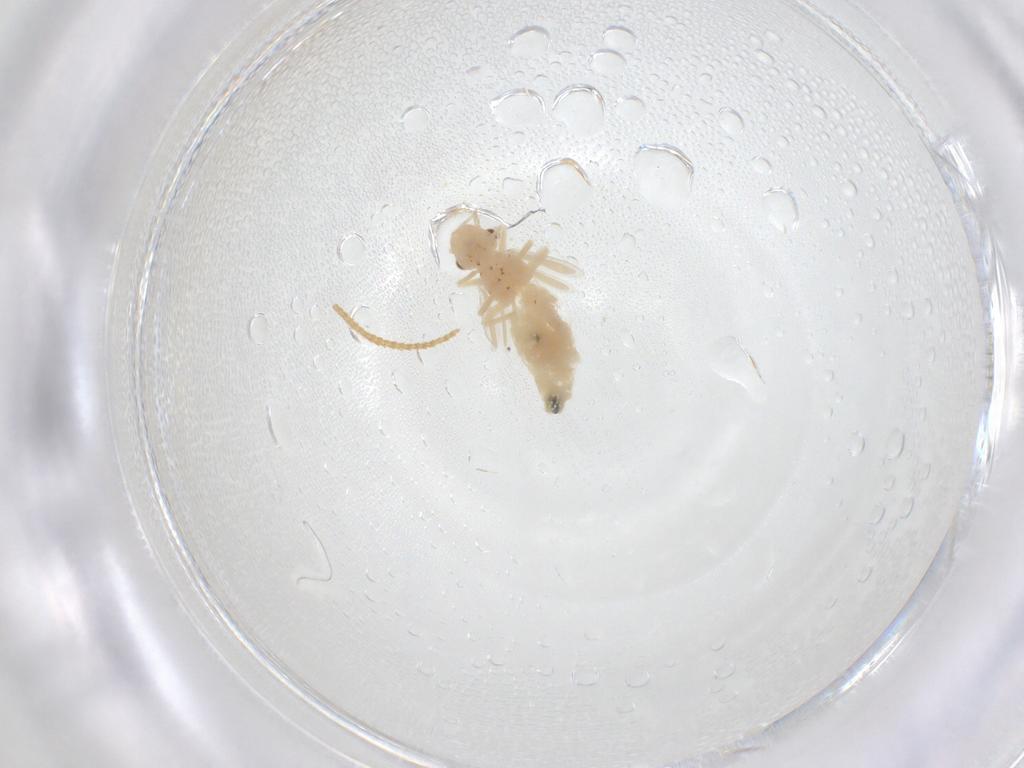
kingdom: Animalia
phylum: Arthropoda
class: Insecta
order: Psocodea
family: Caeciliusidae
